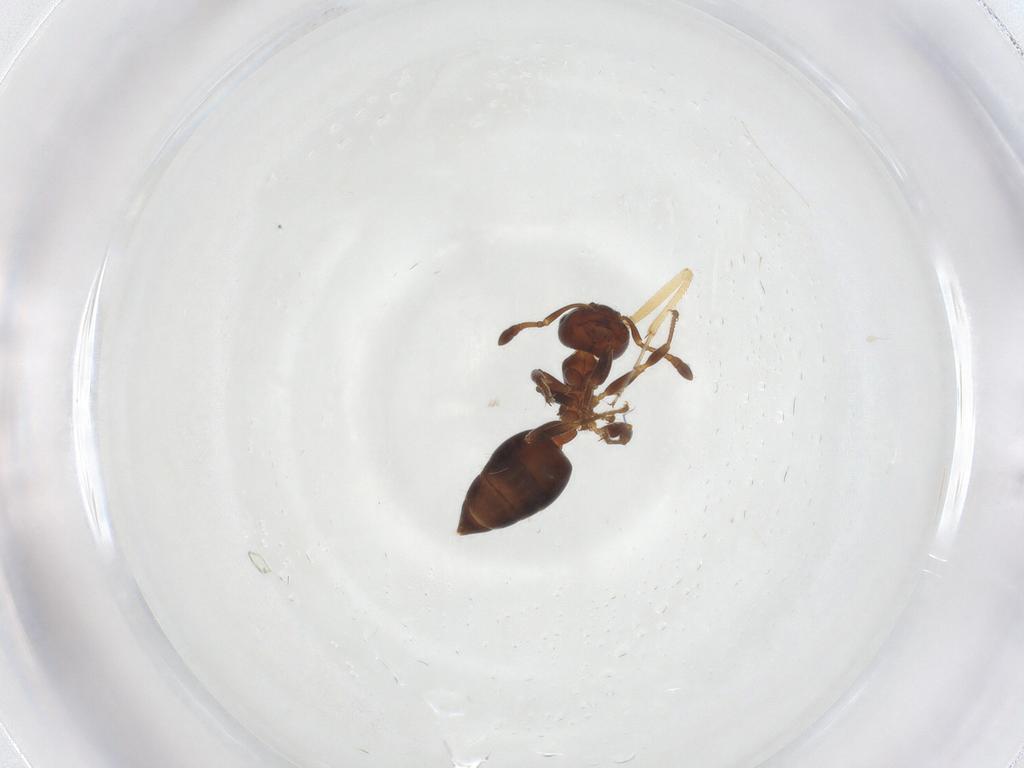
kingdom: Animalia
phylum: Arthropoda
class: Insecta
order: Hymenoptera
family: Formicidae
